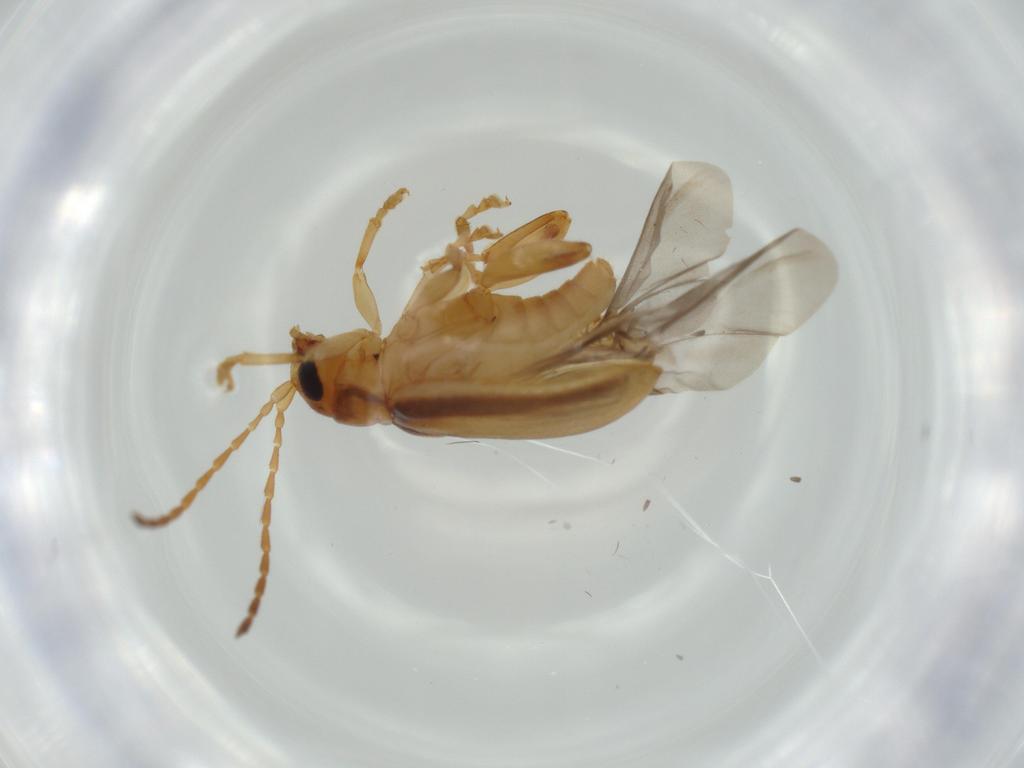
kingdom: Animalia
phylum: Arthropoda
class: Insecta
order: Coleoptera
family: Chrysomelidae
